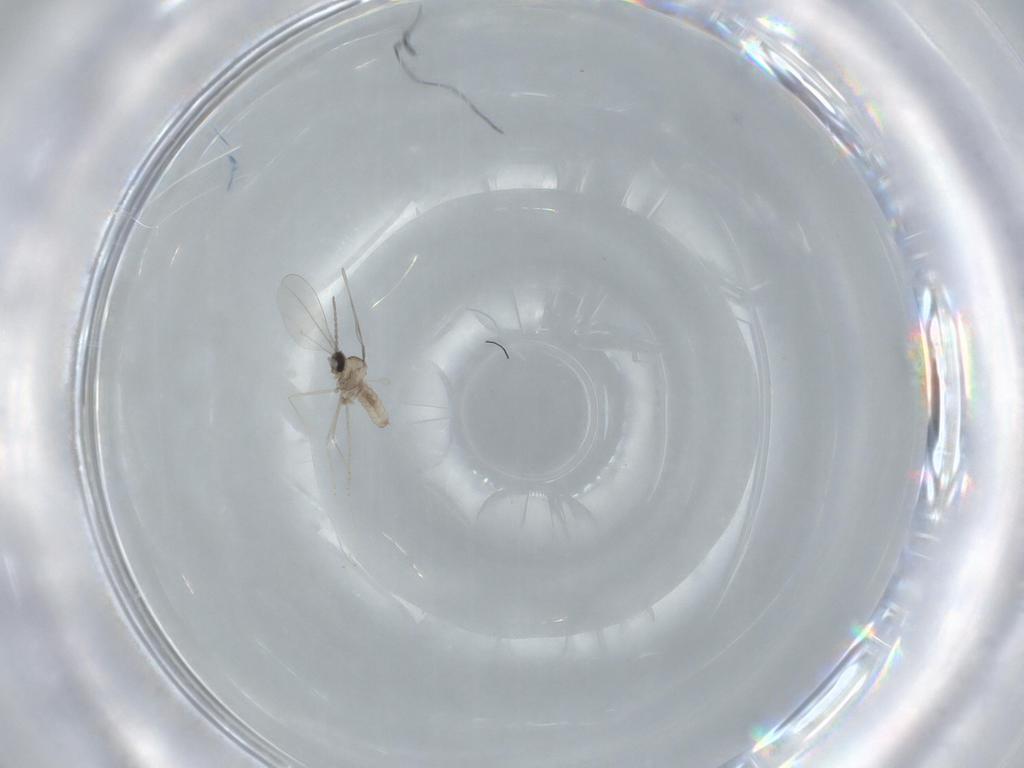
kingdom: Animalia
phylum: Arthropoda
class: Insecta
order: Diptera
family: Cecidomyiidae
